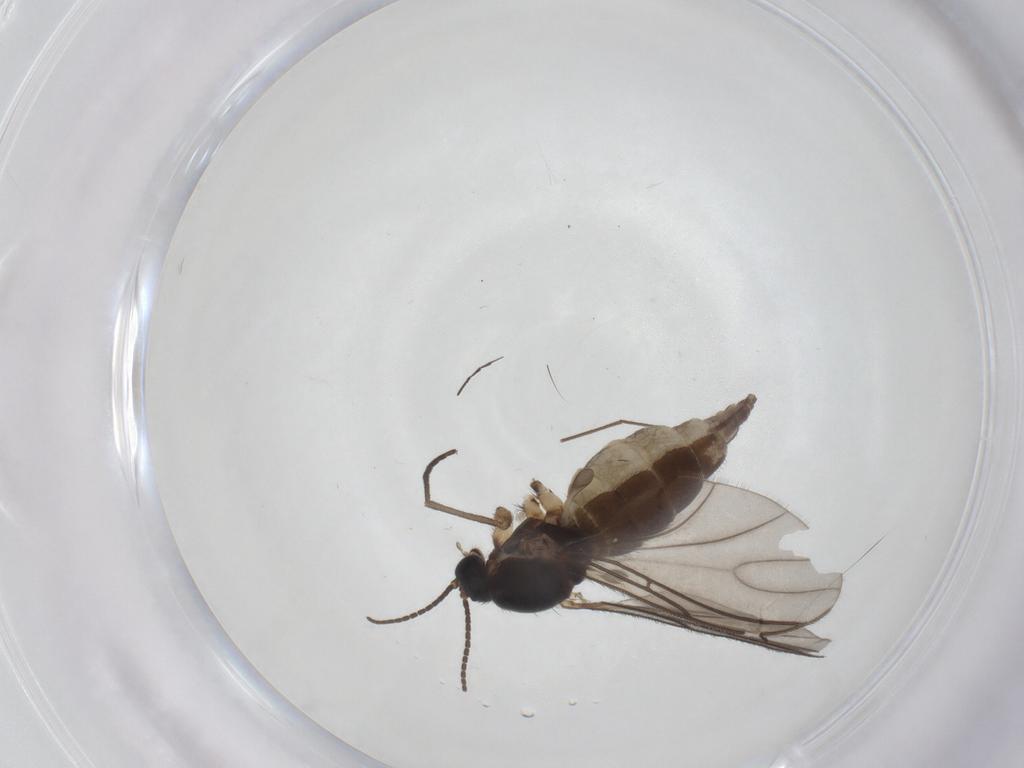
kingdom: Animalia
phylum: Arthropoda
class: Insecta
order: Diptera
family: Sciaridae
